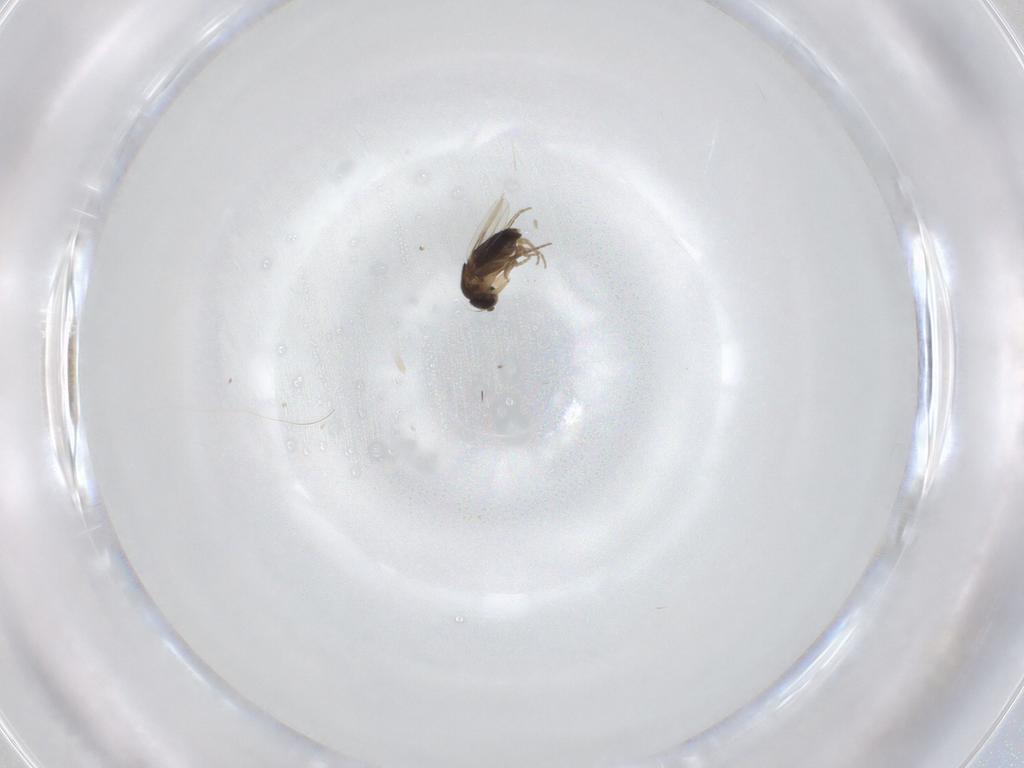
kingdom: Animalia
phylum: Arthropoda
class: Insecta
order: Diptera
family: Phoridae
